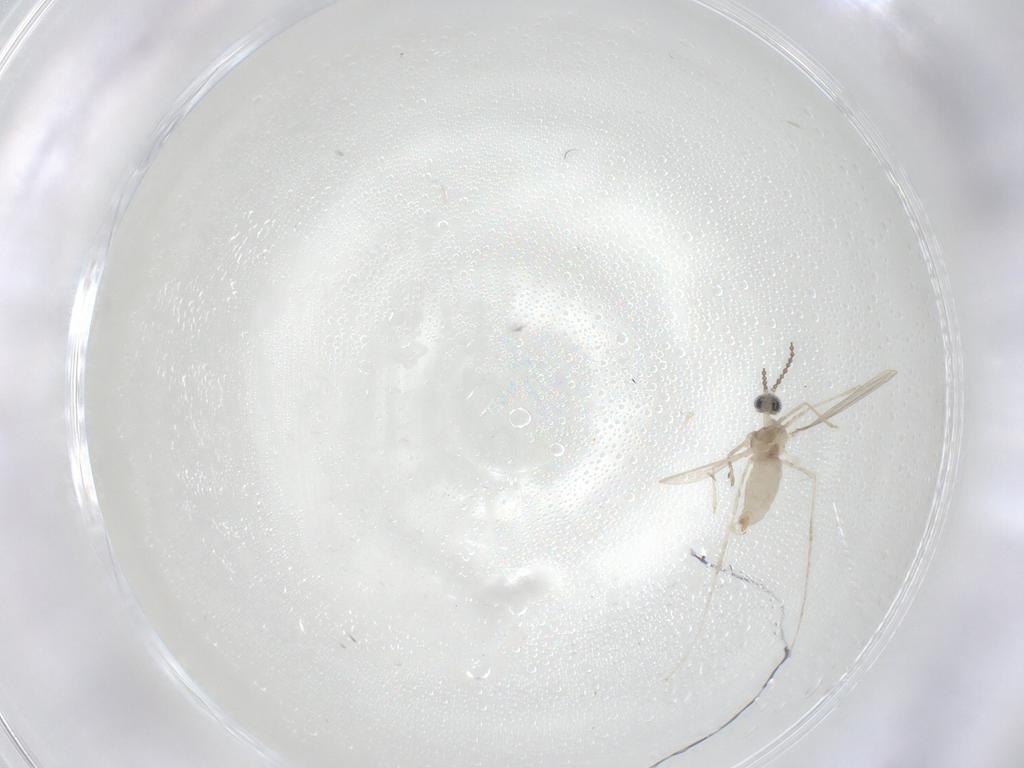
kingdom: Animalia
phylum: Arthropoda
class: Insecta
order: Diptera
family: Cecidomyiidae
